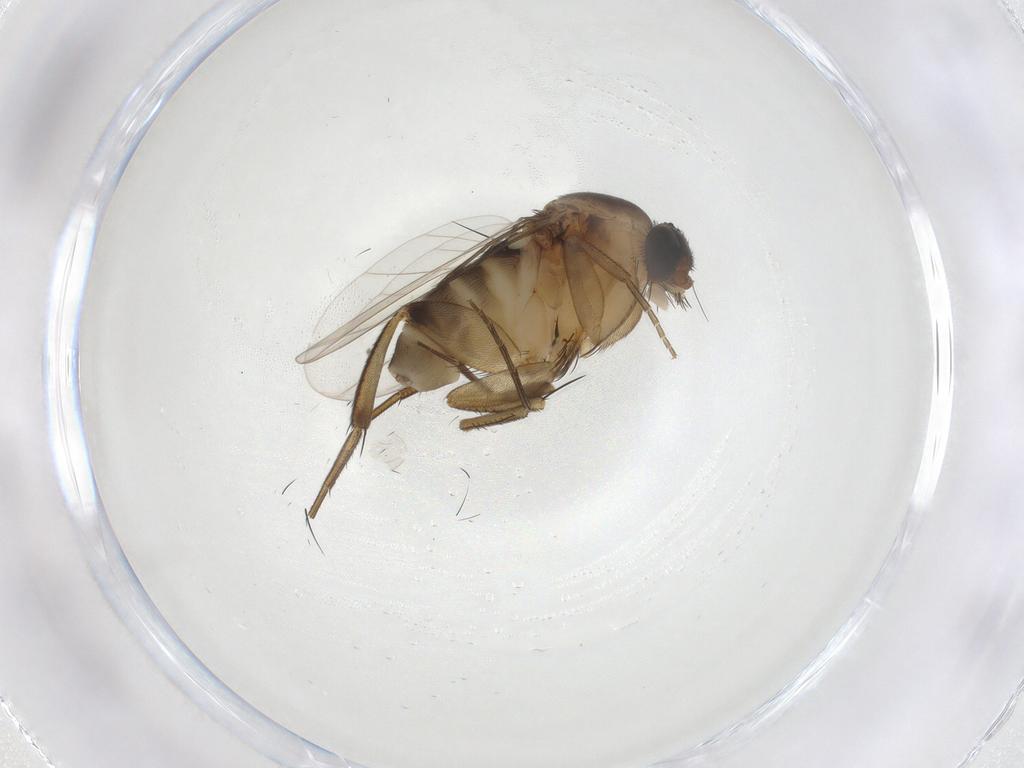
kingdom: Animalia
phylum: Arthropoda
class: Insecta
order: Diptera
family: Phoridae
